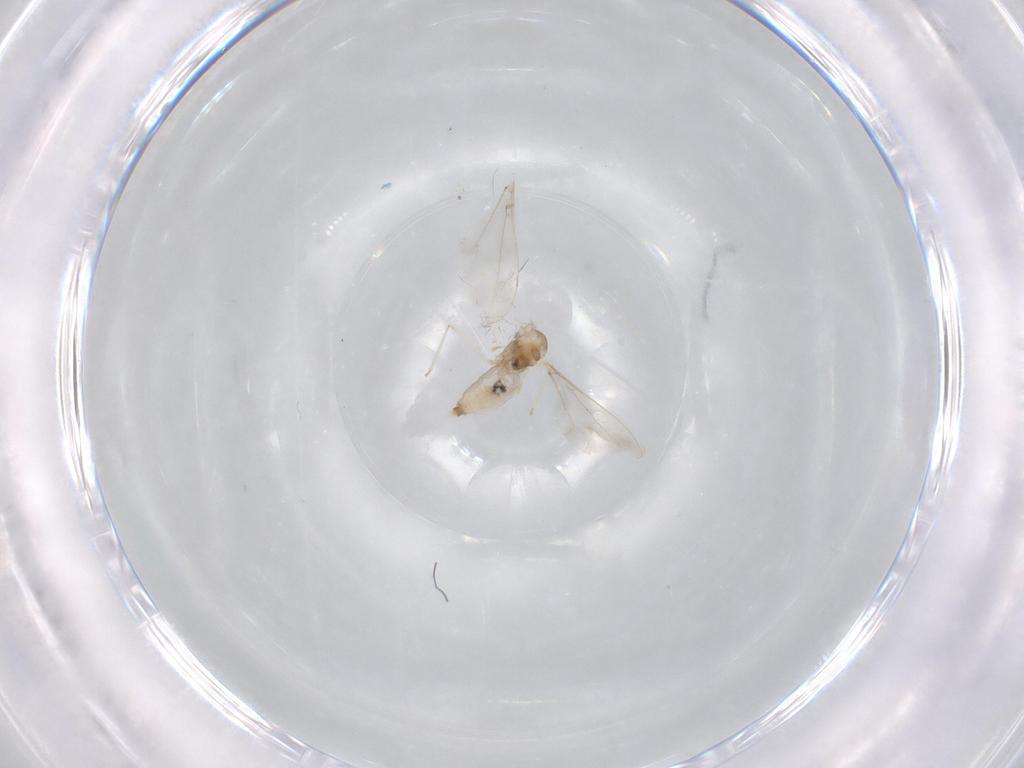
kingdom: Animalia
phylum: Arthropoda
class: Insecta
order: Diptera
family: Cecidomyiidae
